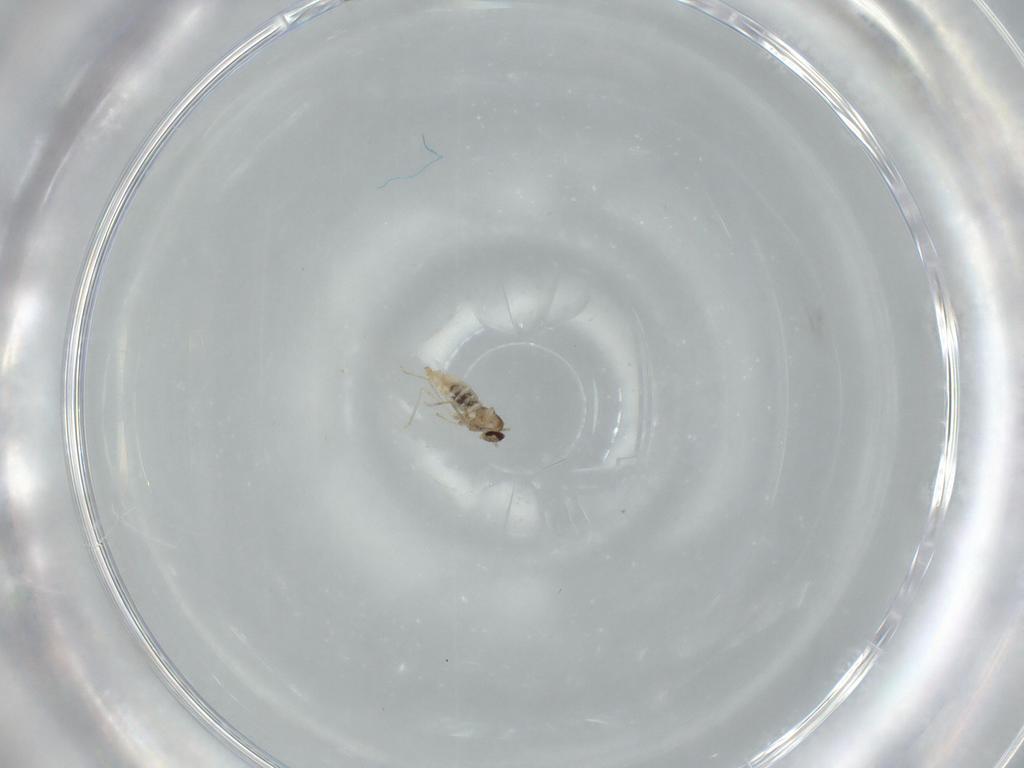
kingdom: Animalia
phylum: Arthropoda
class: Insecta
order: Diptera
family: Cecidomyiidae
